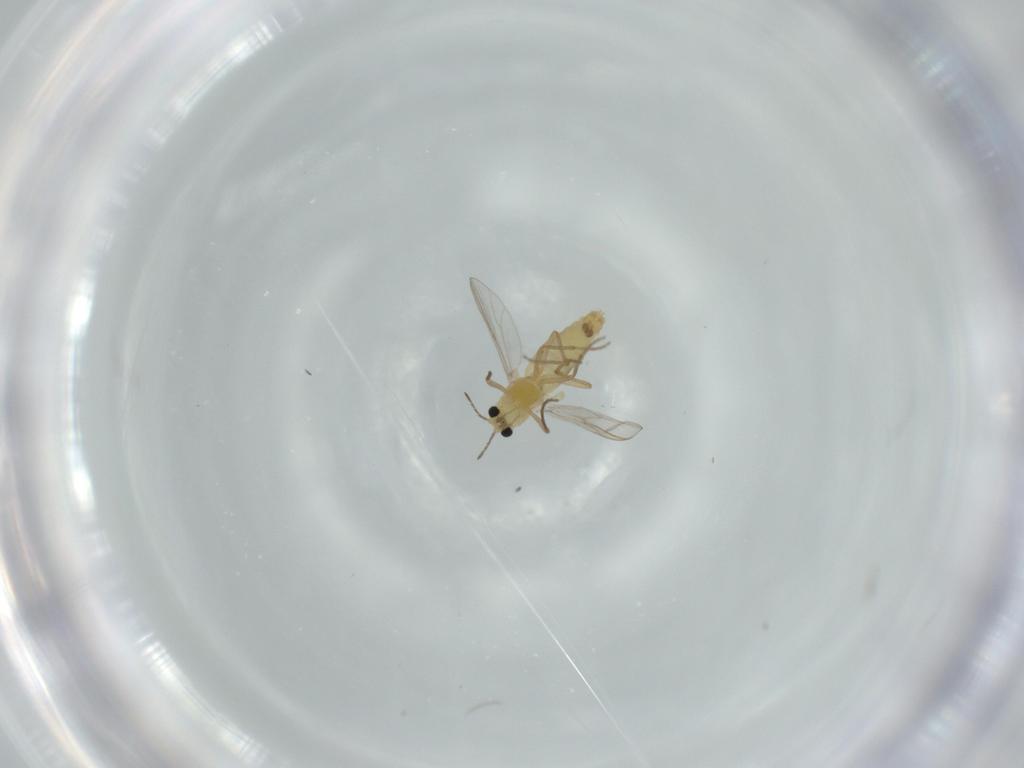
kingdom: Animalia
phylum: Arthropoda
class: Insecta
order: Diptera
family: Chironomidae
